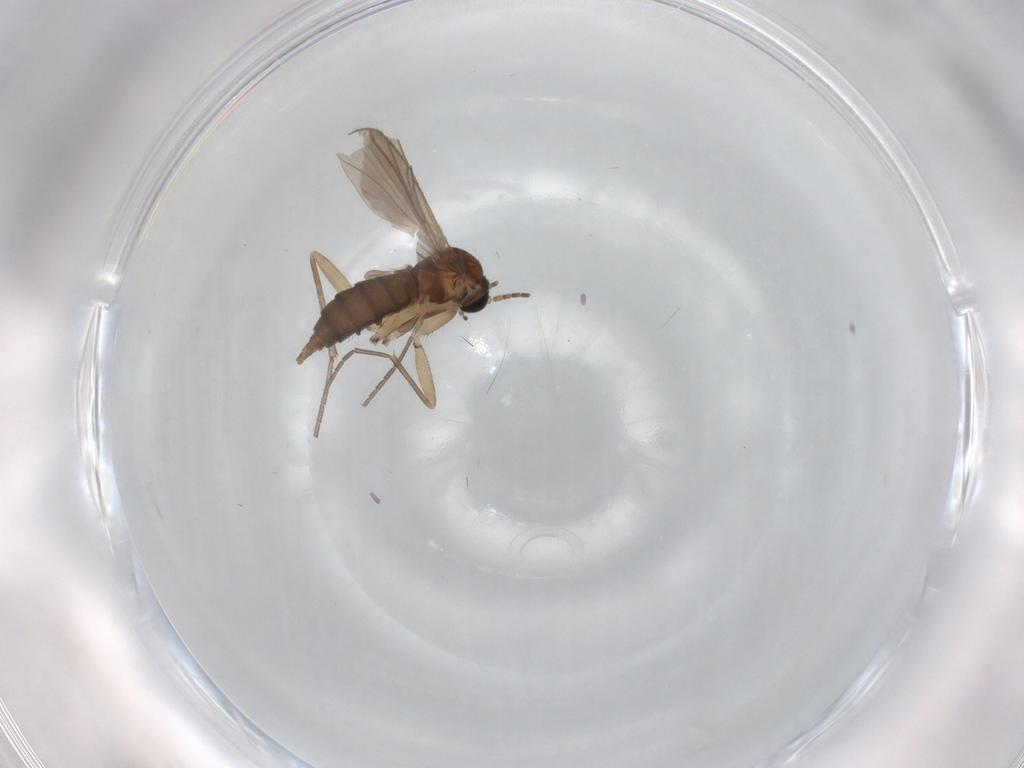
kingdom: Animalia
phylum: Arthropoda
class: Insecta
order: Diptera
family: Sciaridae
